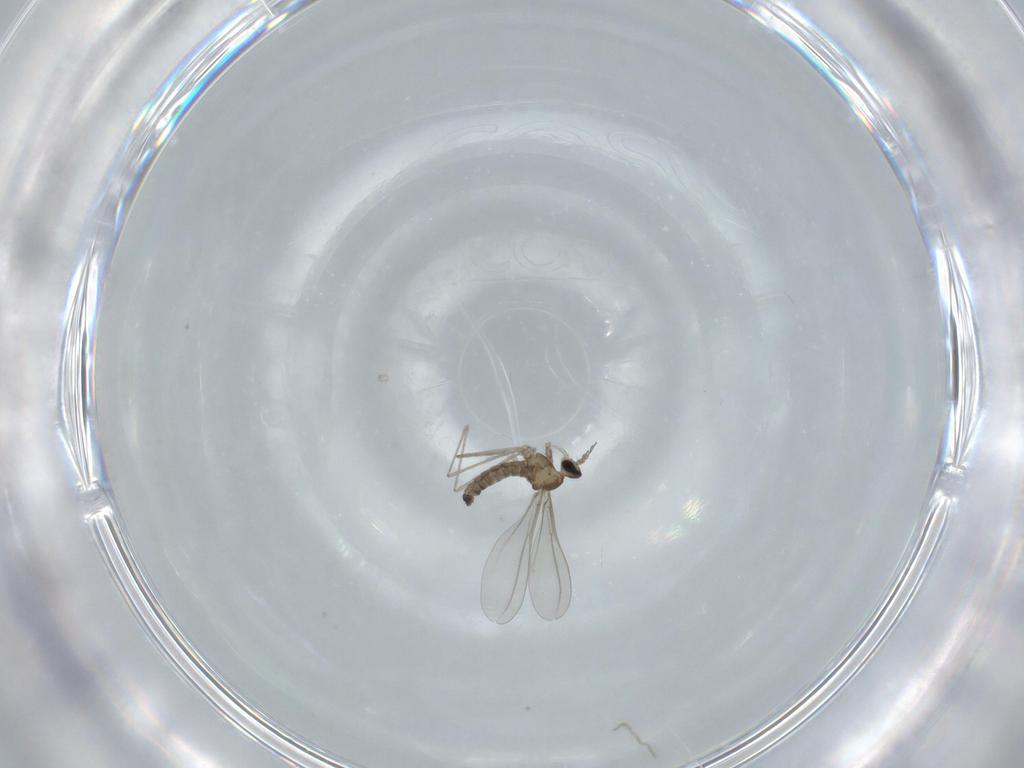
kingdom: Animalia
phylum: Arthropoda
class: Insecta
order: Diptera
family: Cecidomyiidae
